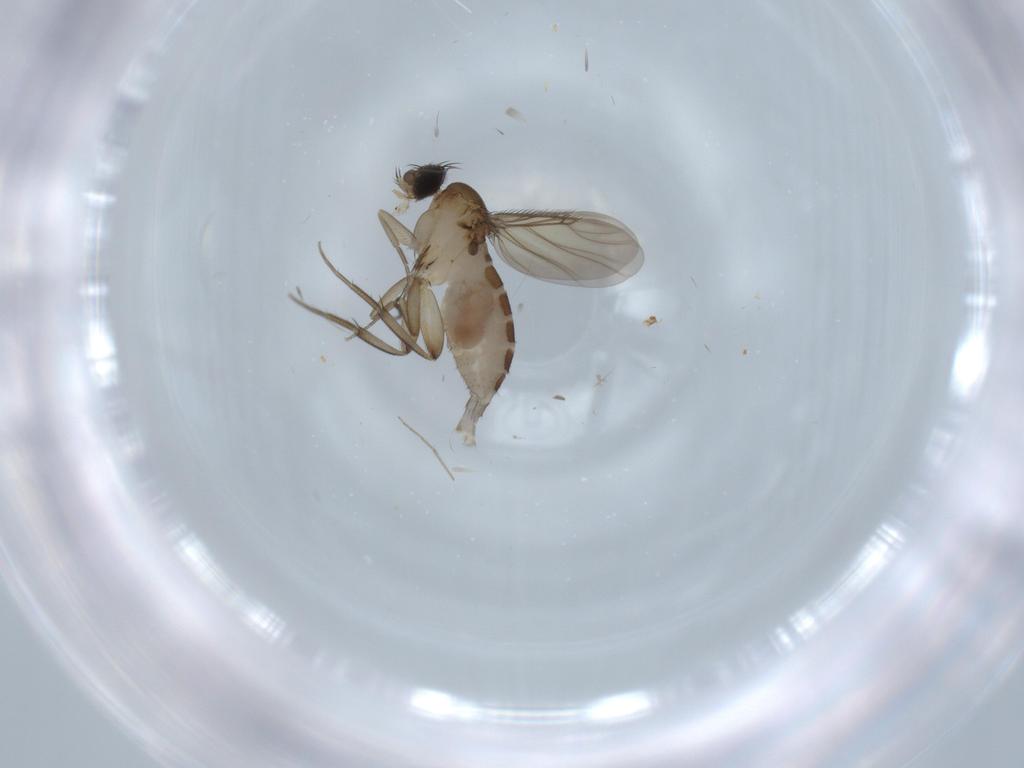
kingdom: Animalia
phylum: Arthropoda
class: Insecta
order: Diptera
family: Phoridae
